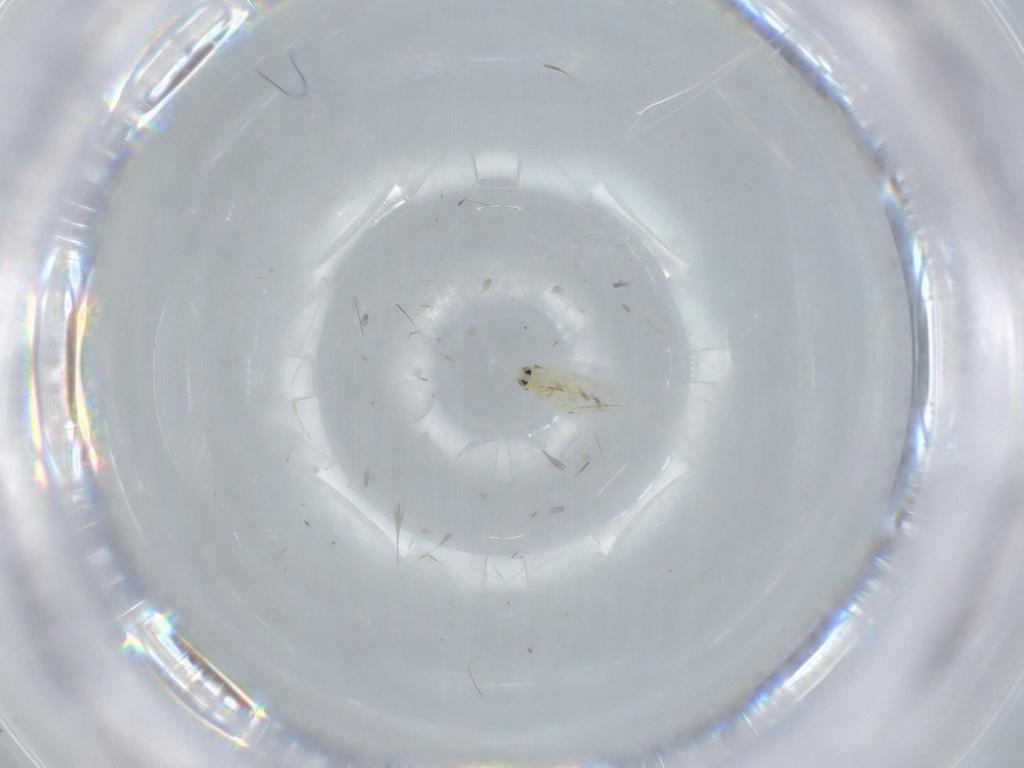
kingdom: Animalia
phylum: Arthropoda
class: Insecta
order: Hemiptera
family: Aleyrodidae
